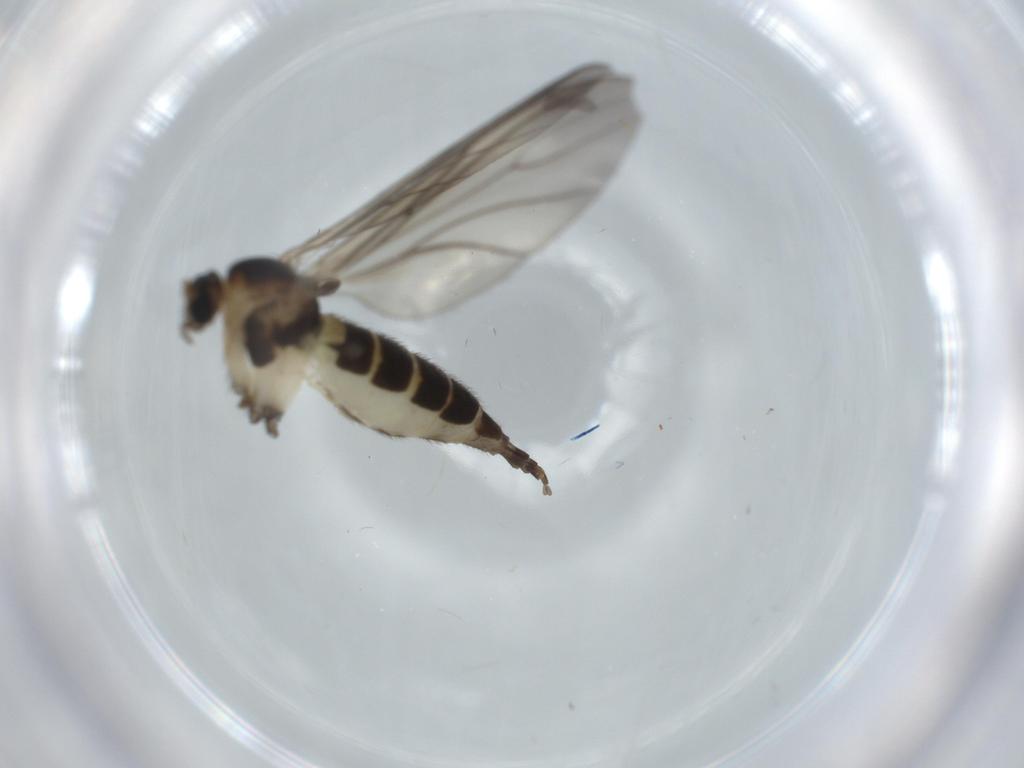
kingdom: Animalia
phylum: Arthropoda
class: Insecta
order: Diptera
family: Sciaridae
